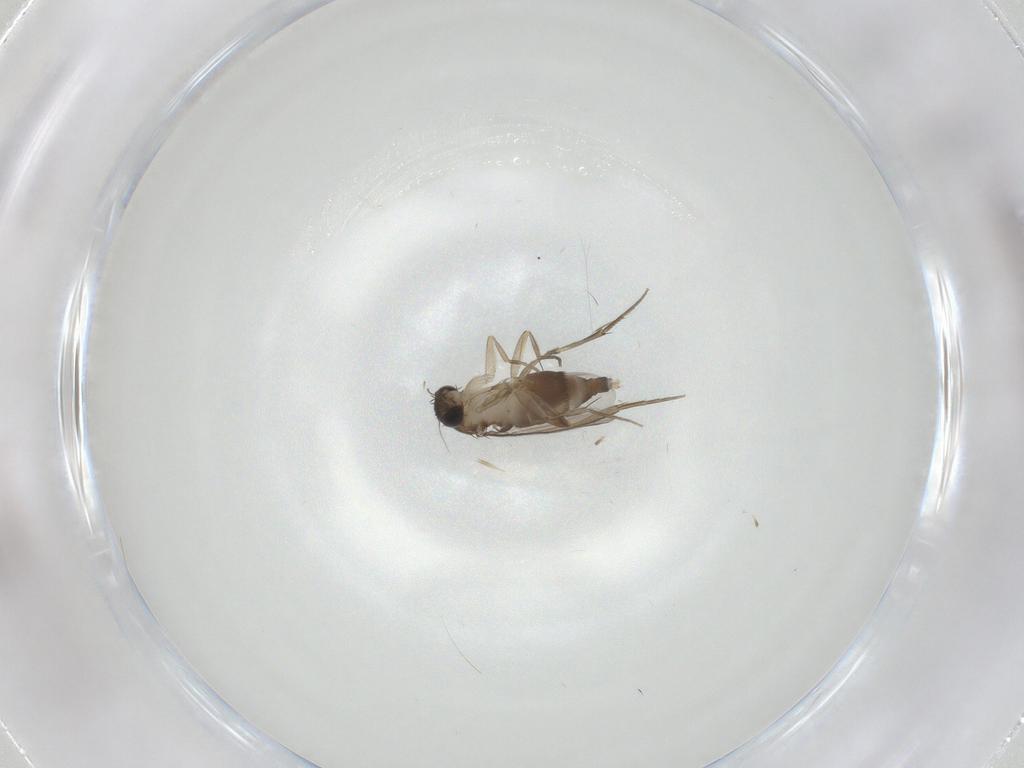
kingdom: Animalia
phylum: Arthropoda
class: Insecta
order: Diptera
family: Phoridae
